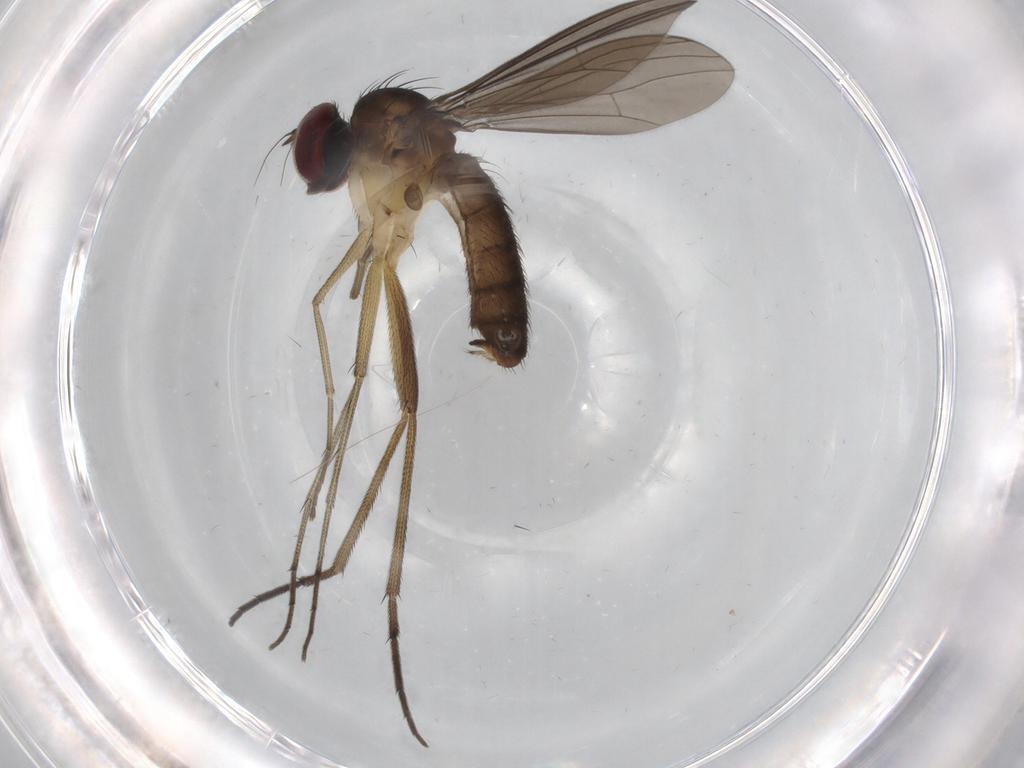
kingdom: Animalia
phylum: Arthropoda
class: Insecta
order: Diptera
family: Dolichopodidae
